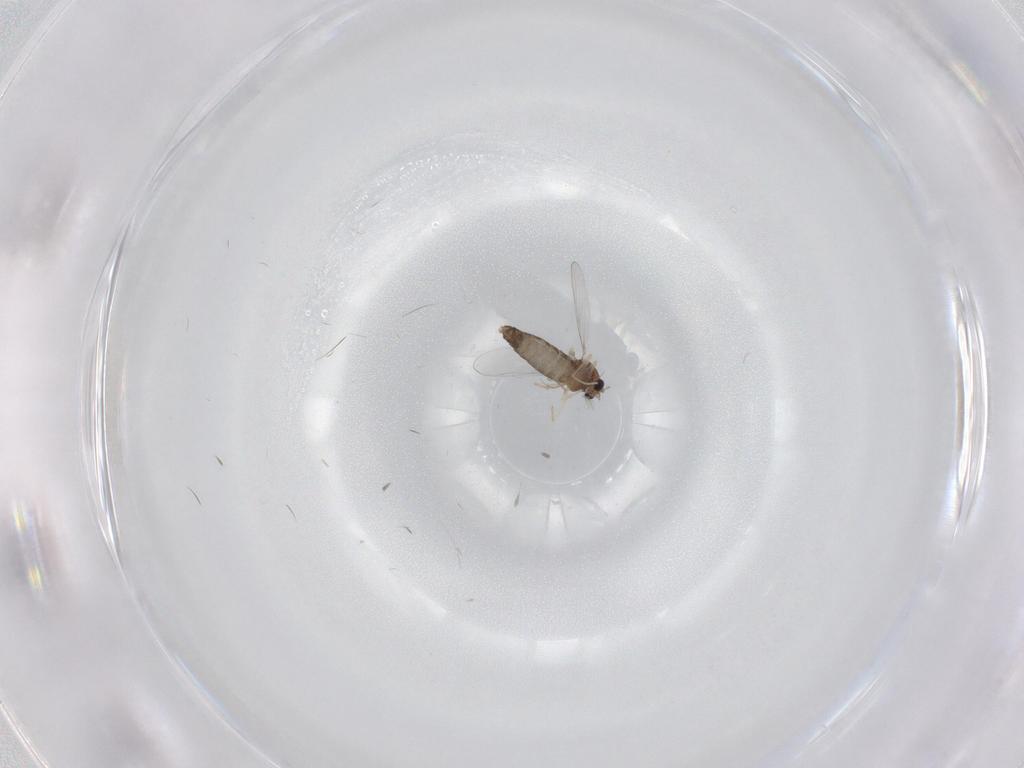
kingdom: Animalia
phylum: Arthropoda
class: Insecta
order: Diptera
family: Chironomidae
